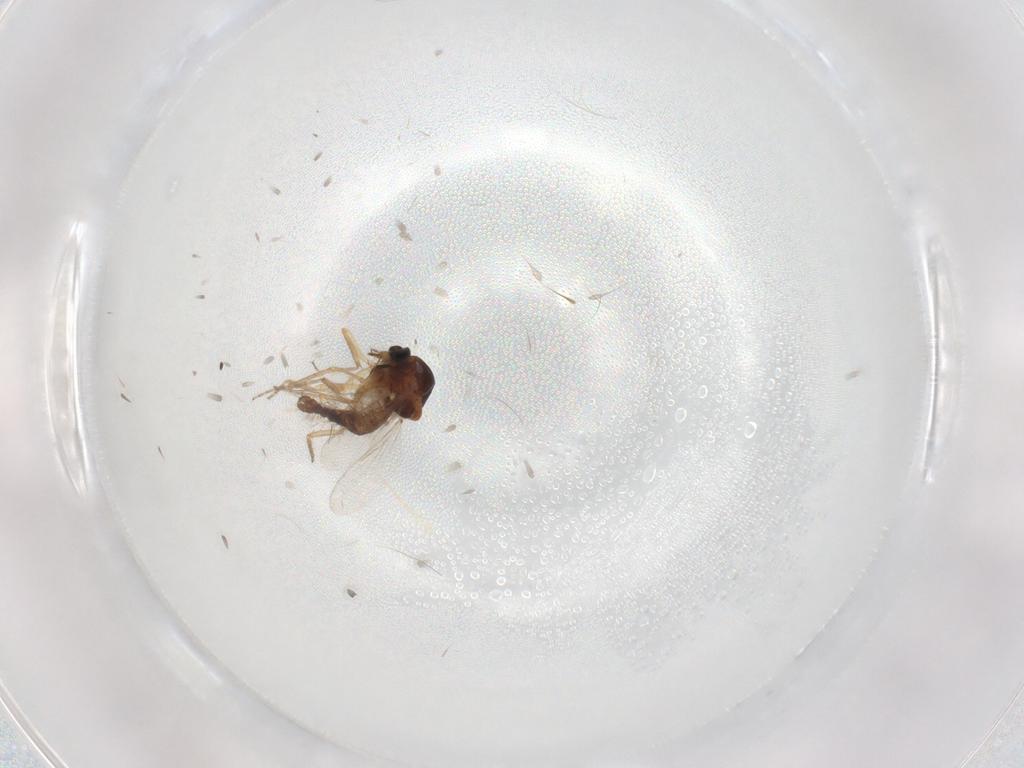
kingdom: Animalia
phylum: Arthropoda
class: Insecta
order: Diptera
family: Ceratopogonidae
